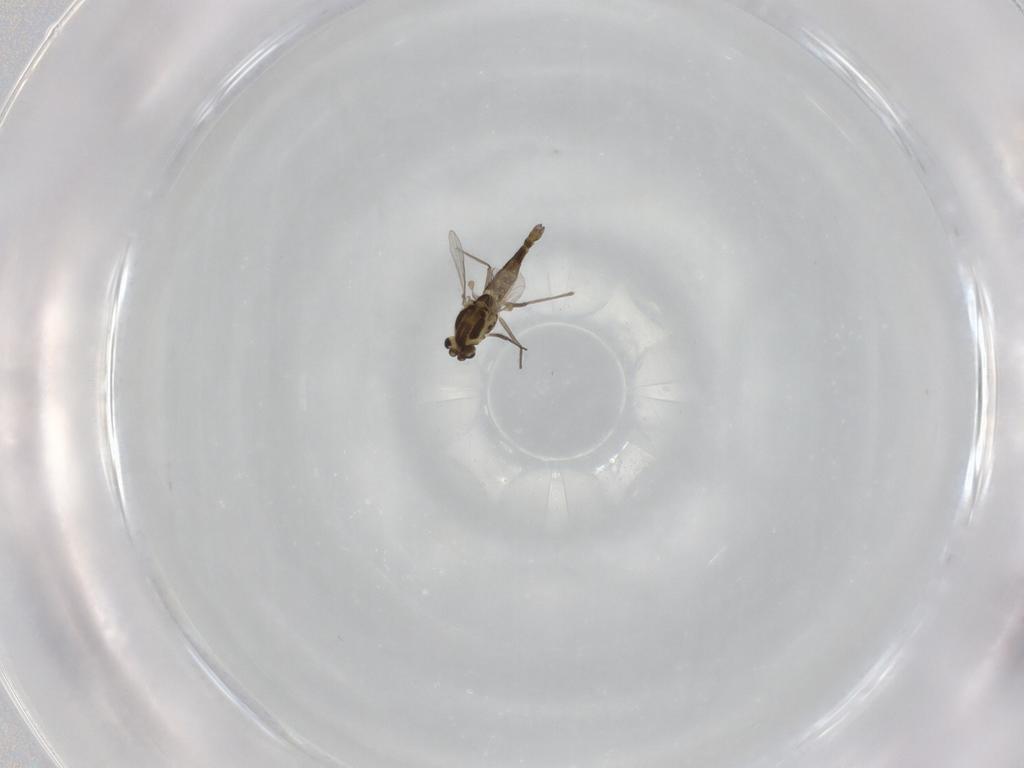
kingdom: Animalia
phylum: Arthropoda
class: Insecta
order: Diptera
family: Chironomidae
